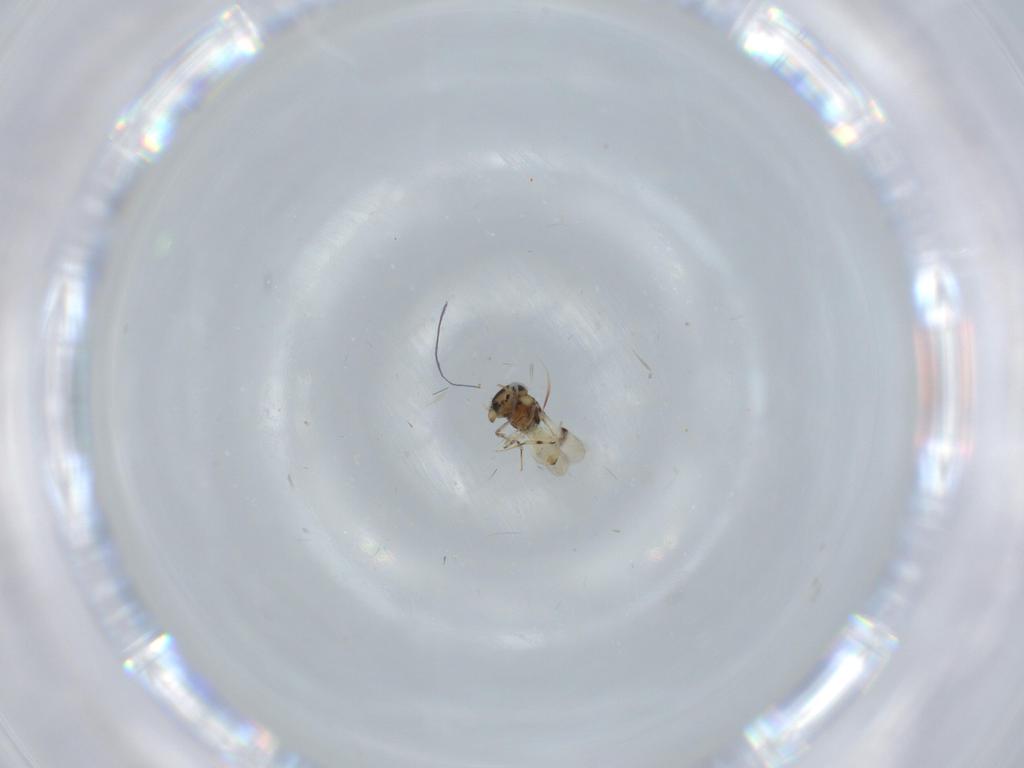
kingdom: Animalia
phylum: Arthropoda
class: Insecta
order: Hymenoptera
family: Scelionidae
